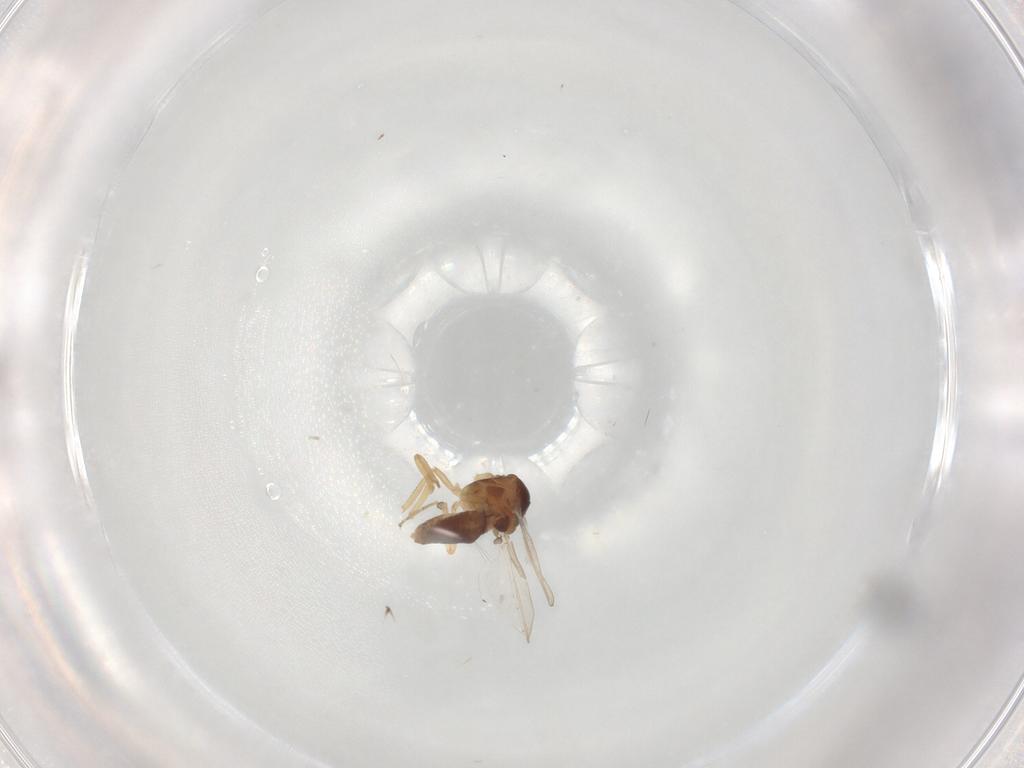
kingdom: Animalia
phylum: Arthropoda
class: Insecta
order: Diptera
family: Ceratopogonidae
